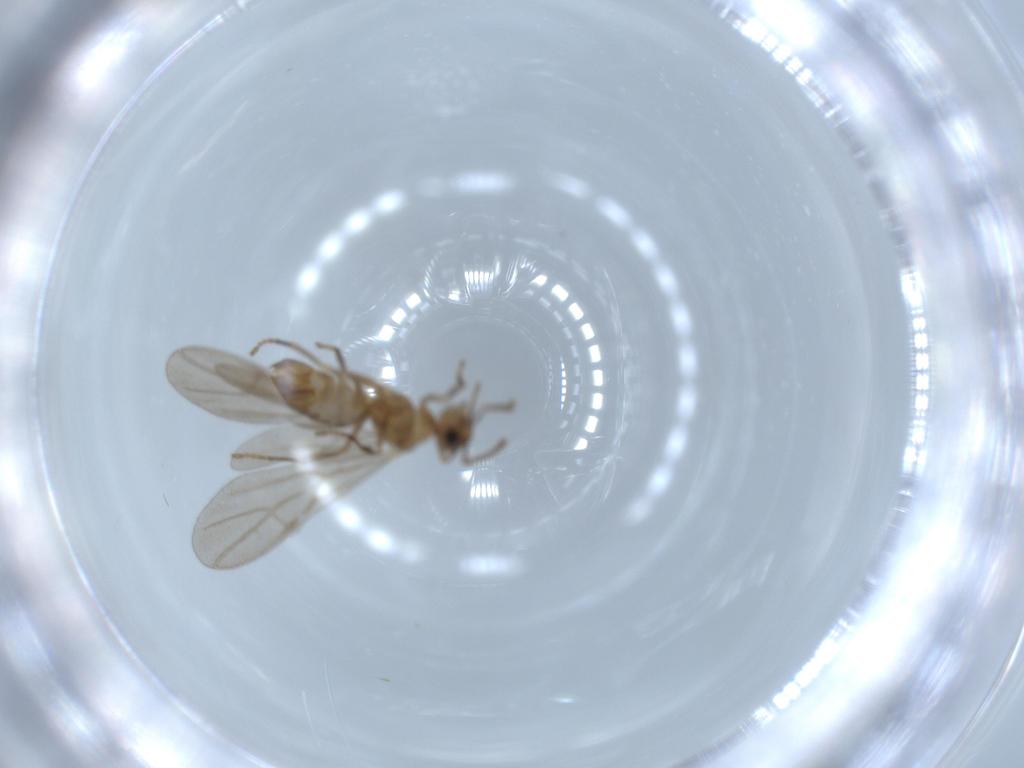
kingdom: Animalia
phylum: Arthropoda
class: Insecta
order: Hymenoptera
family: Formicidae
